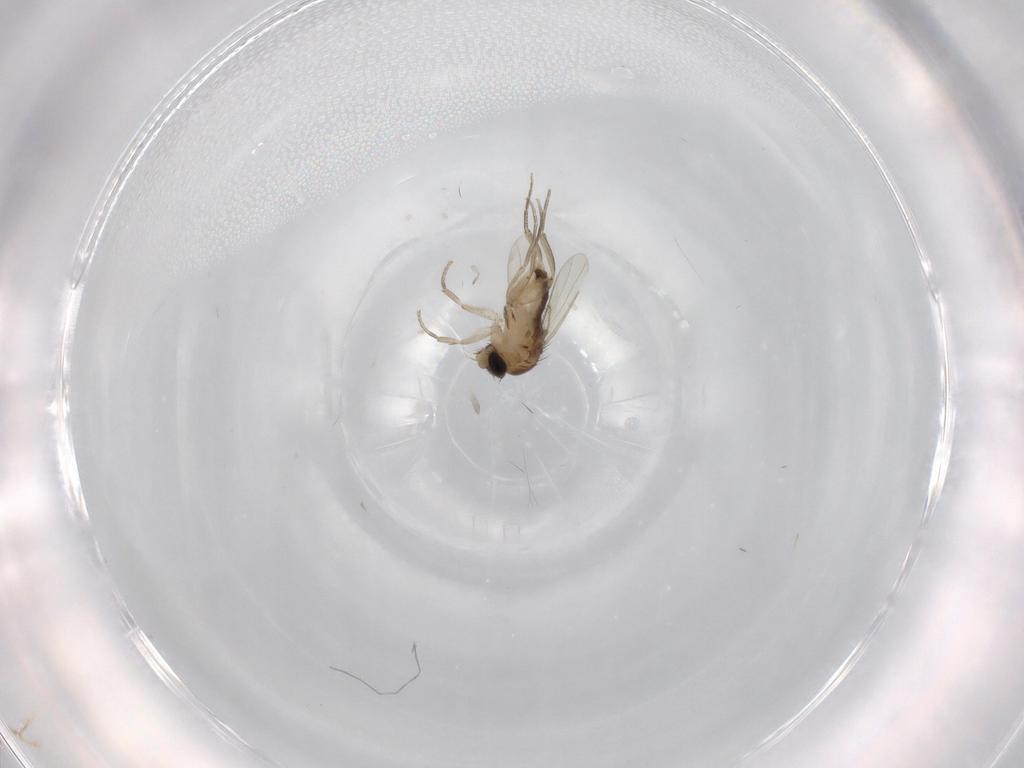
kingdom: Animalia
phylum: Arthropoda
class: Insecta
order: Diptera
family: Phoridae
